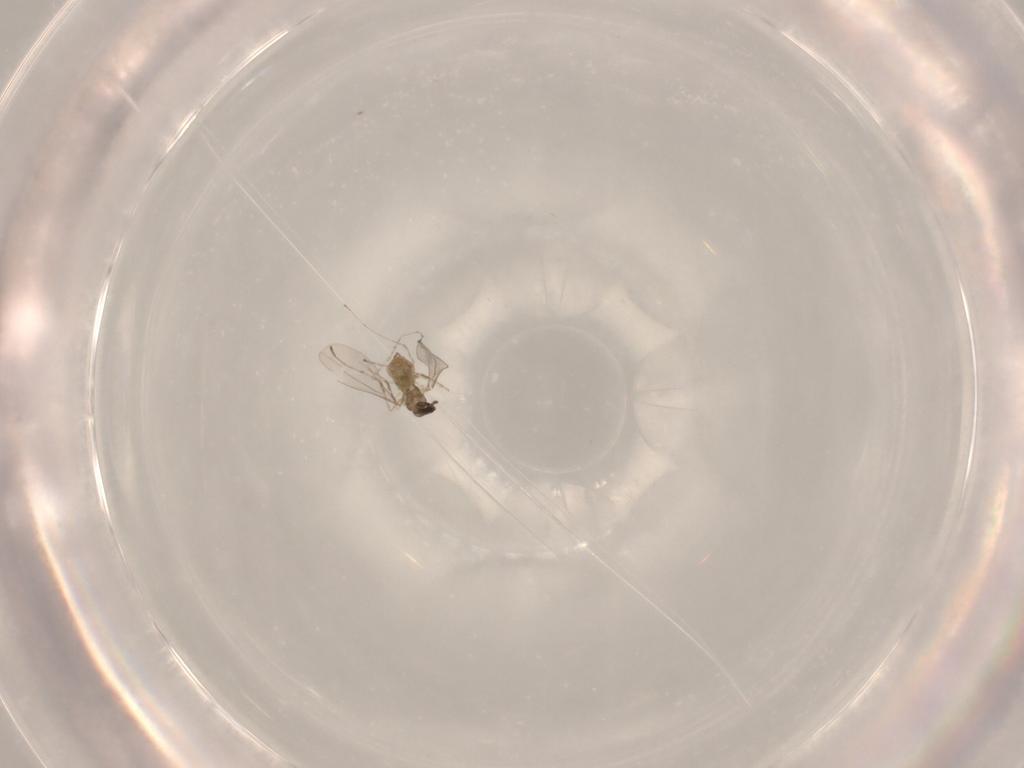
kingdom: Animalia
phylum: Arthropoda
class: Insecta
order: Diptera
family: Cecidomyiidae
